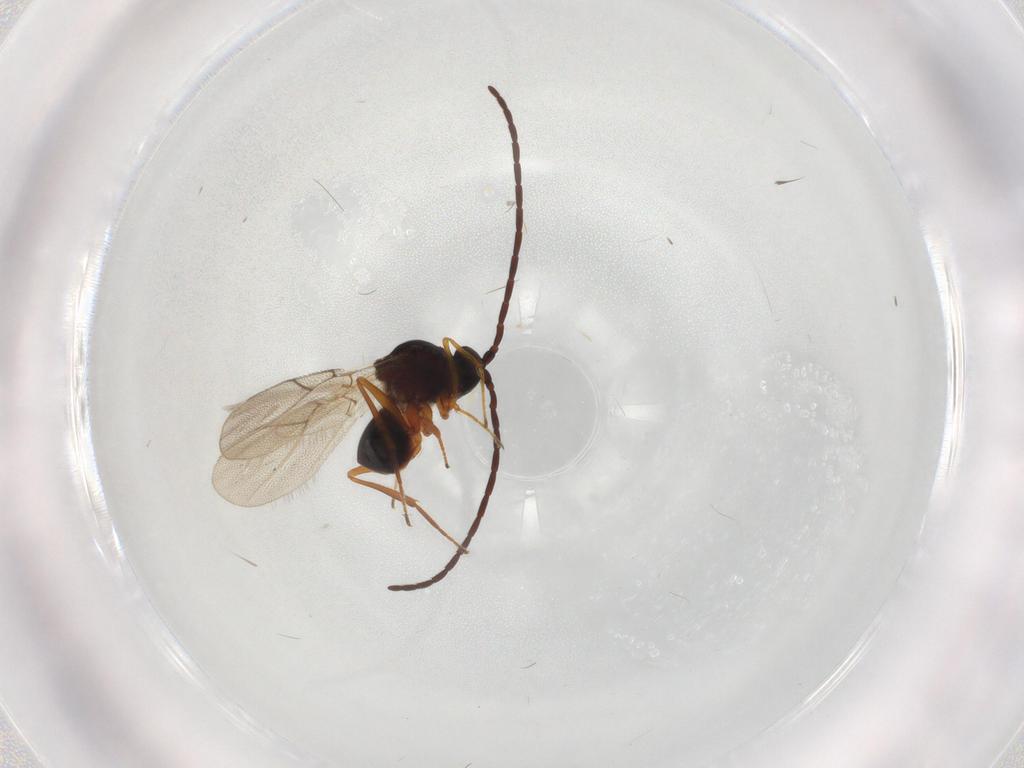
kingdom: Animalia
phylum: Arthropoda
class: Insecta
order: Hymenoptera
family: Figitidae
